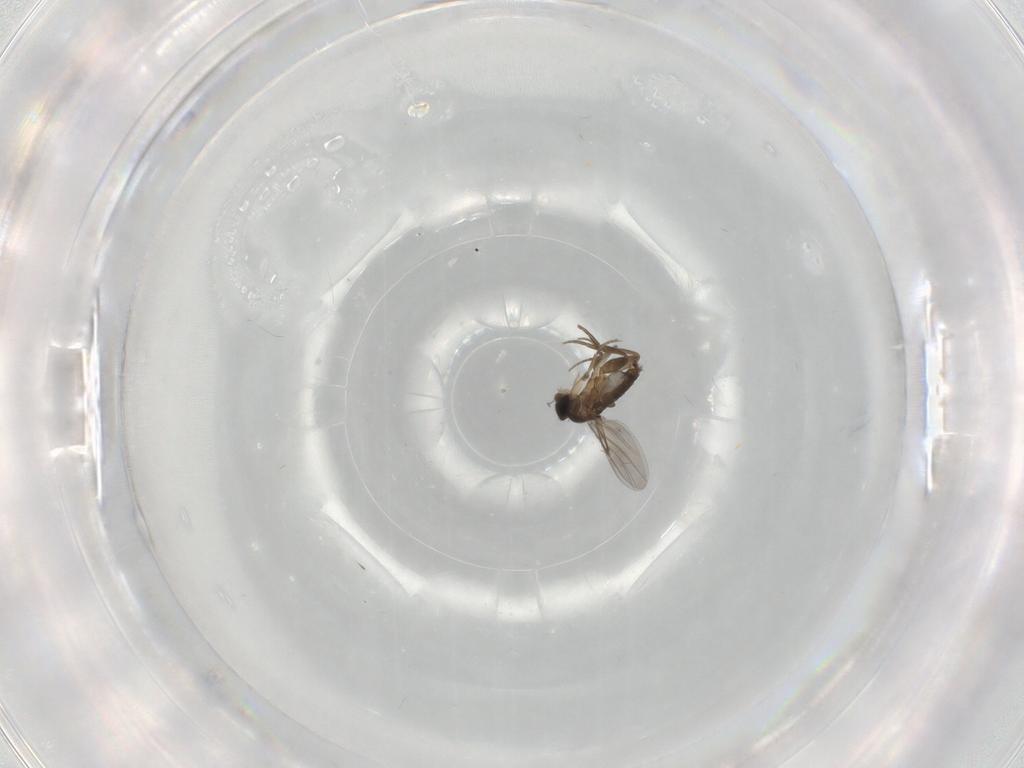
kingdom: Animalia
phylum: Arthropoda
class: Insecta
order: Diptera
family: Phoridae
